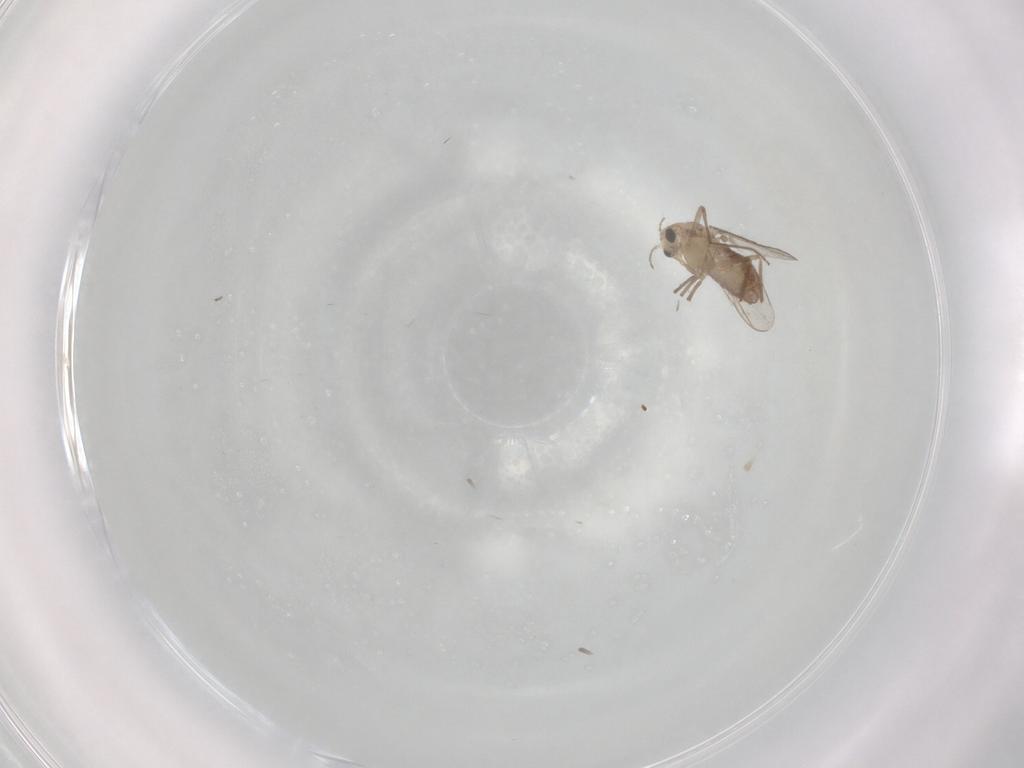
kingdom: Animalia
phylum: Arthropoda
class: Insecta
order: Diptera
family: Chironomidae
